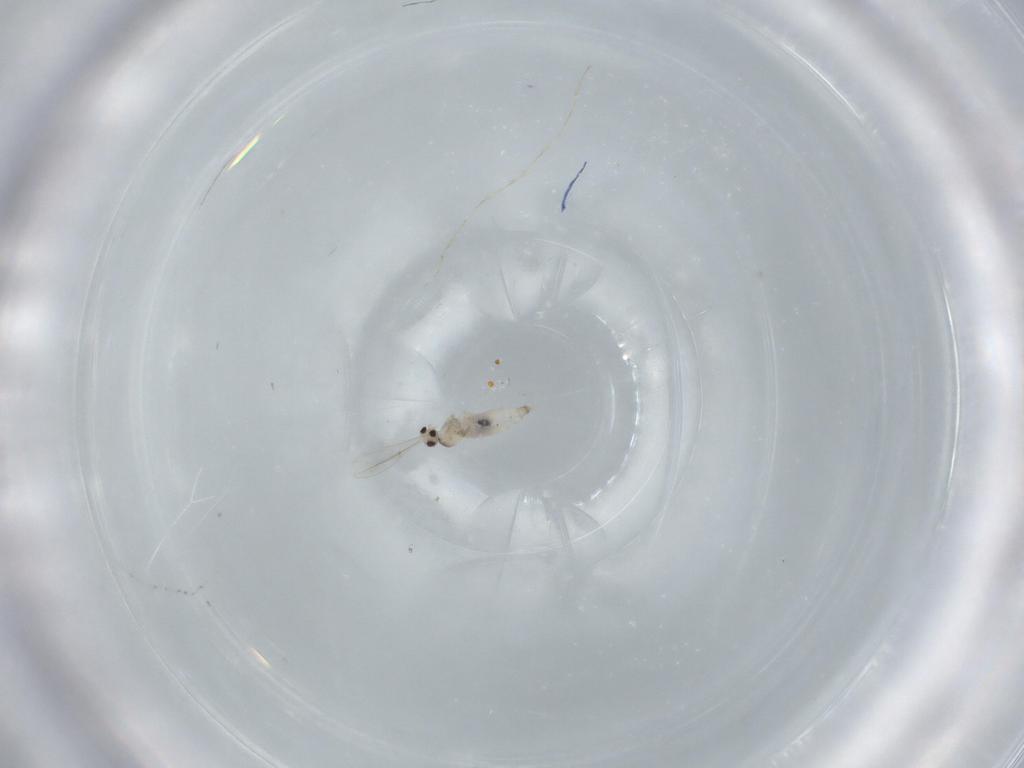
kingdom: Animalia
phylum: Arthropoda
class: Insecta
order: Diptera
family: Cecidomyiidae
